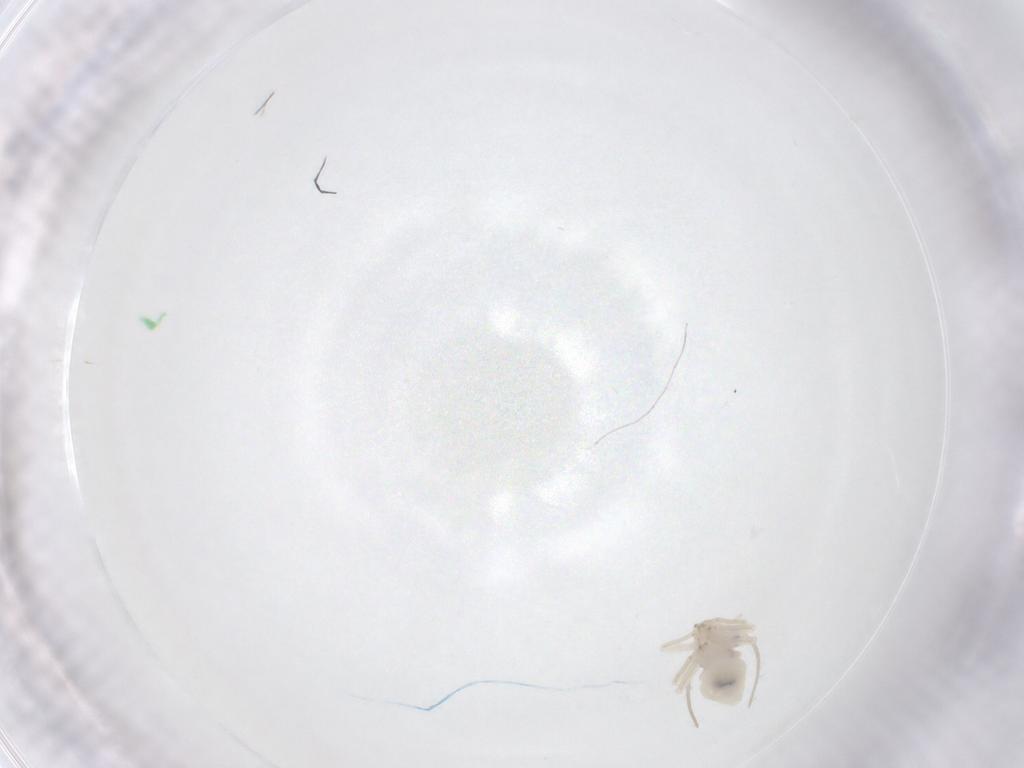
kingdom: Animalia
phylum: Arthropoda
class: Insecta
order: Psocodea
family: Caeciliusidae
